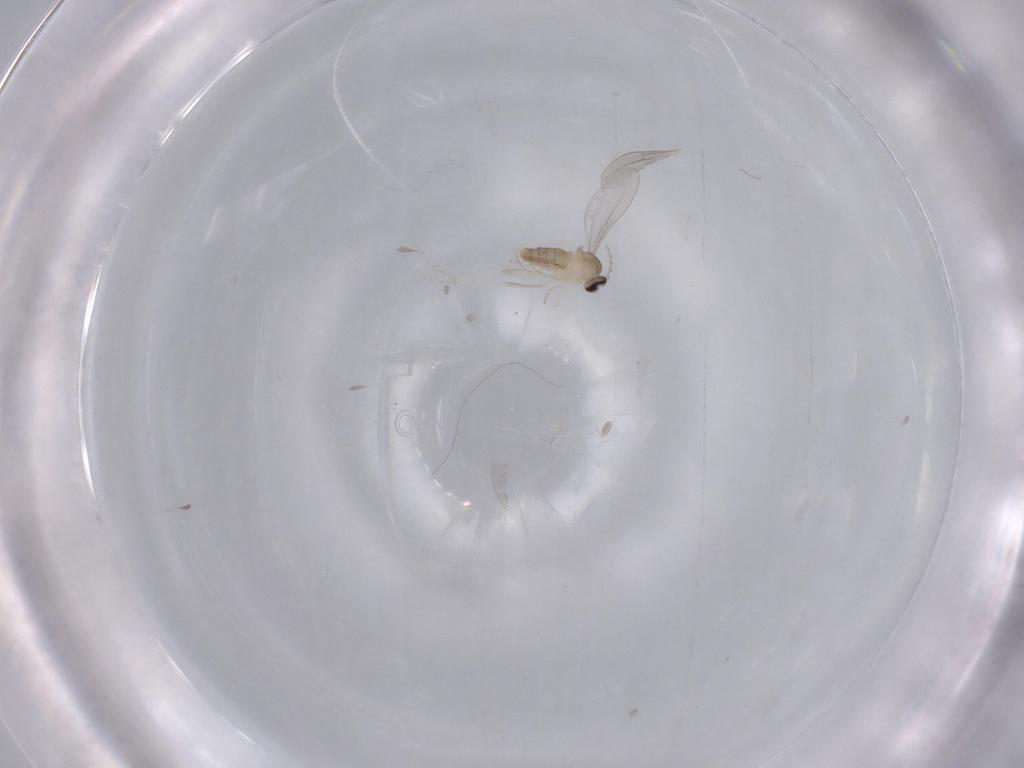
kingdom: Animalia
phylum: Arthropoda
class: Insecta
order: Diptera
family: Cecidomyiidae
